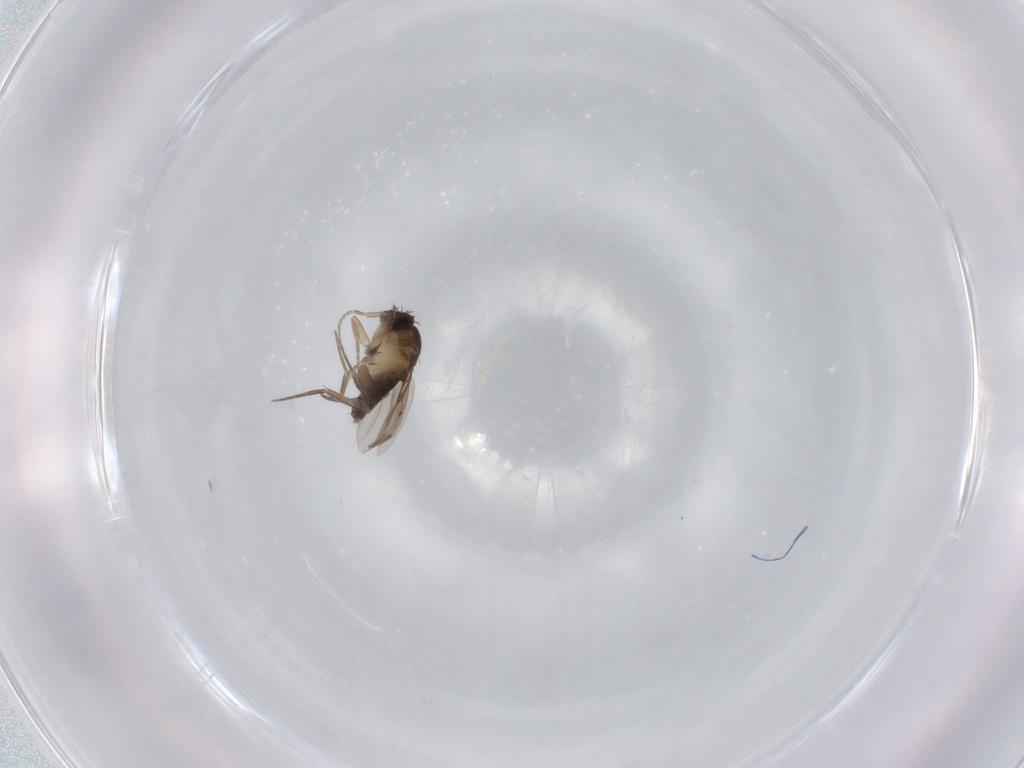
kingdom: Animalia
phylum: Arthropoda
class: Insecta
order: Diptera
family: Phoridae
